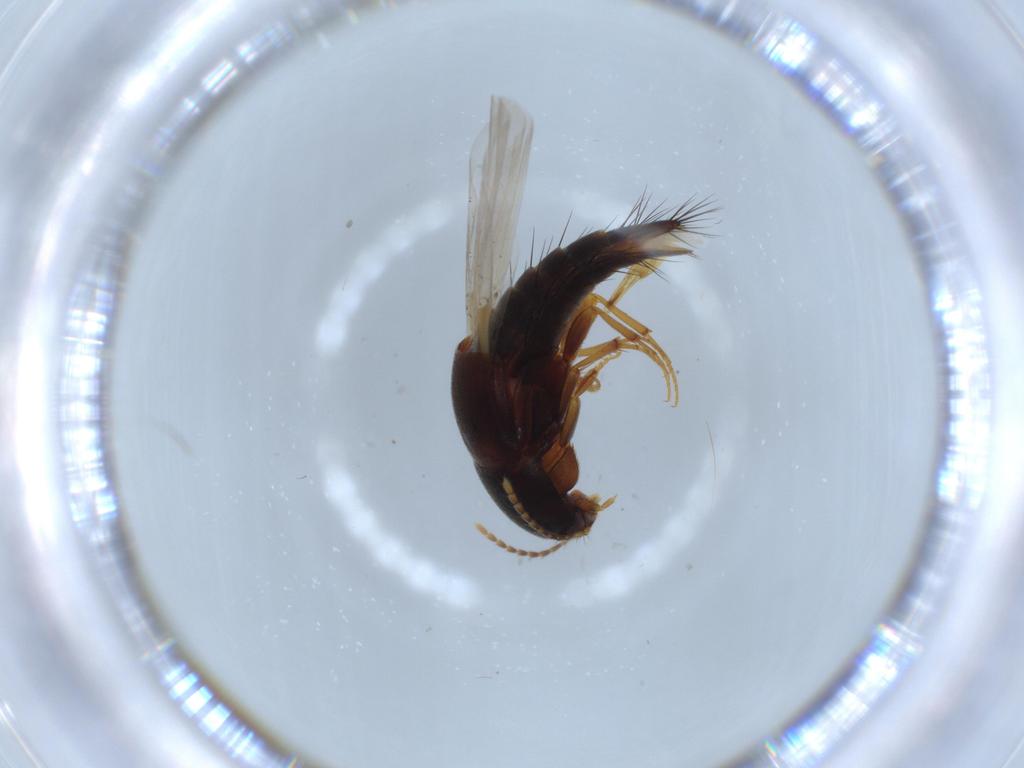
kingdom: Animalia
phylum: Arthropoda
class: Insecta
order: Coleoptera
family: Staphylinidae
